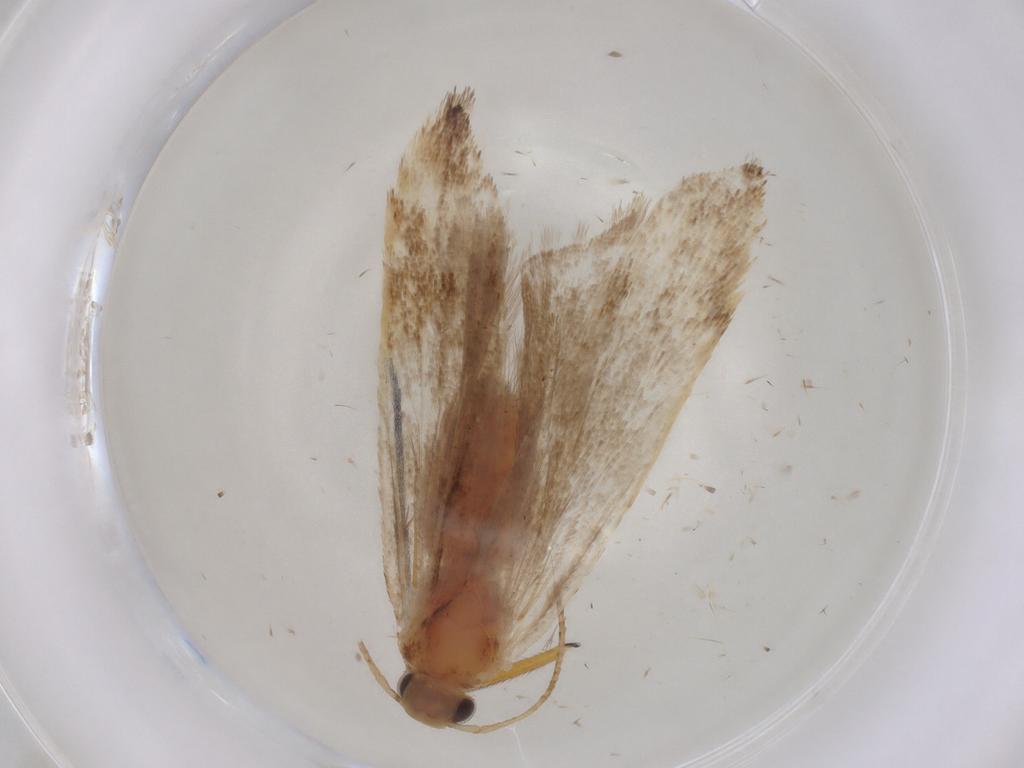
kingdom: Animalia
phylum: Arthropoda
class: Insecta
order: Lepidoptera
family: Gelechiidae
